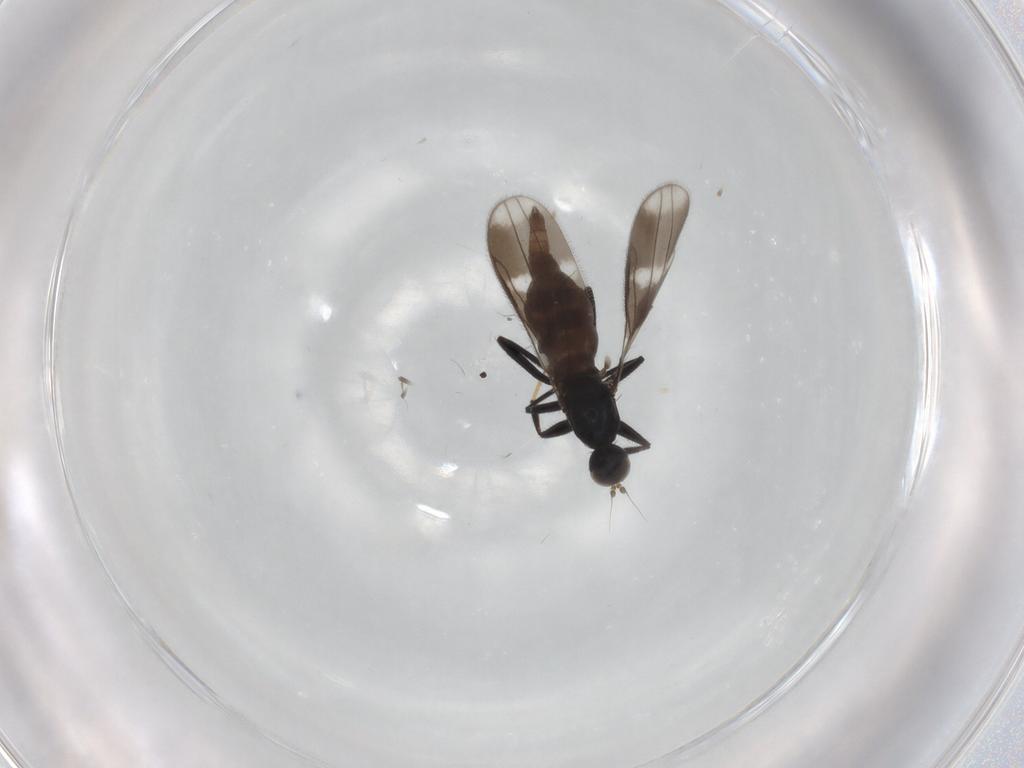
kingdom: Animalia
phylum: Arthropoda
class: Insecta
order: Diptera
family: Hybotidae
